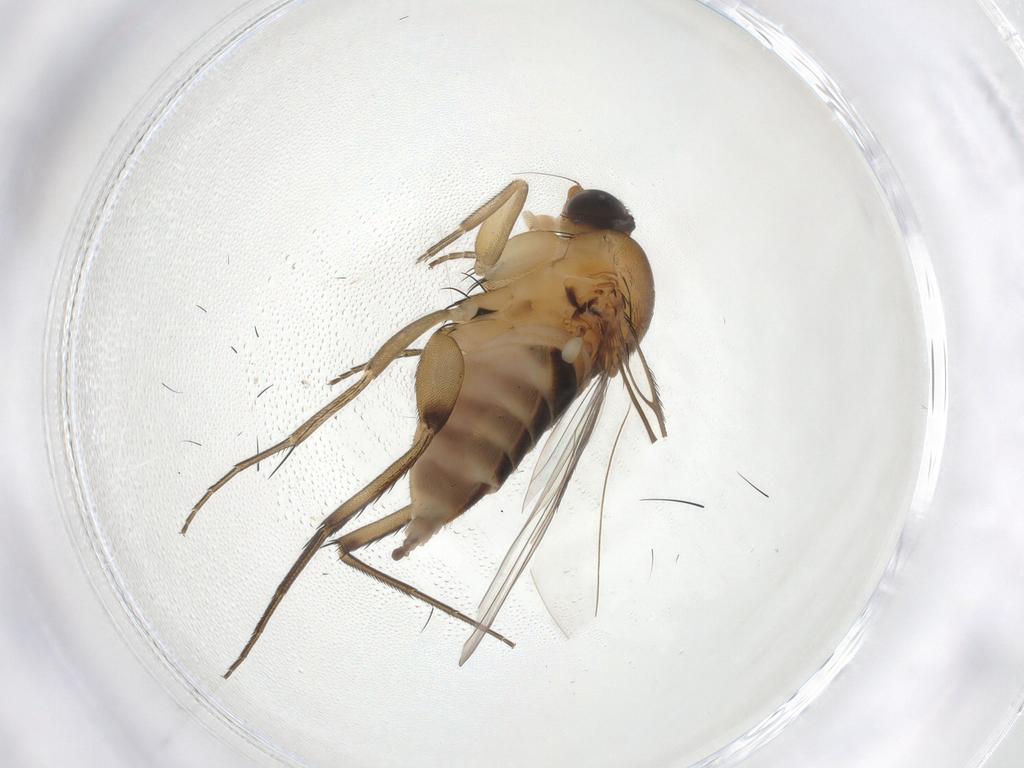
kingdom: Animalia
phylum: Arthropoda
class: Insecta
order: Diptera
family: Phoridae
